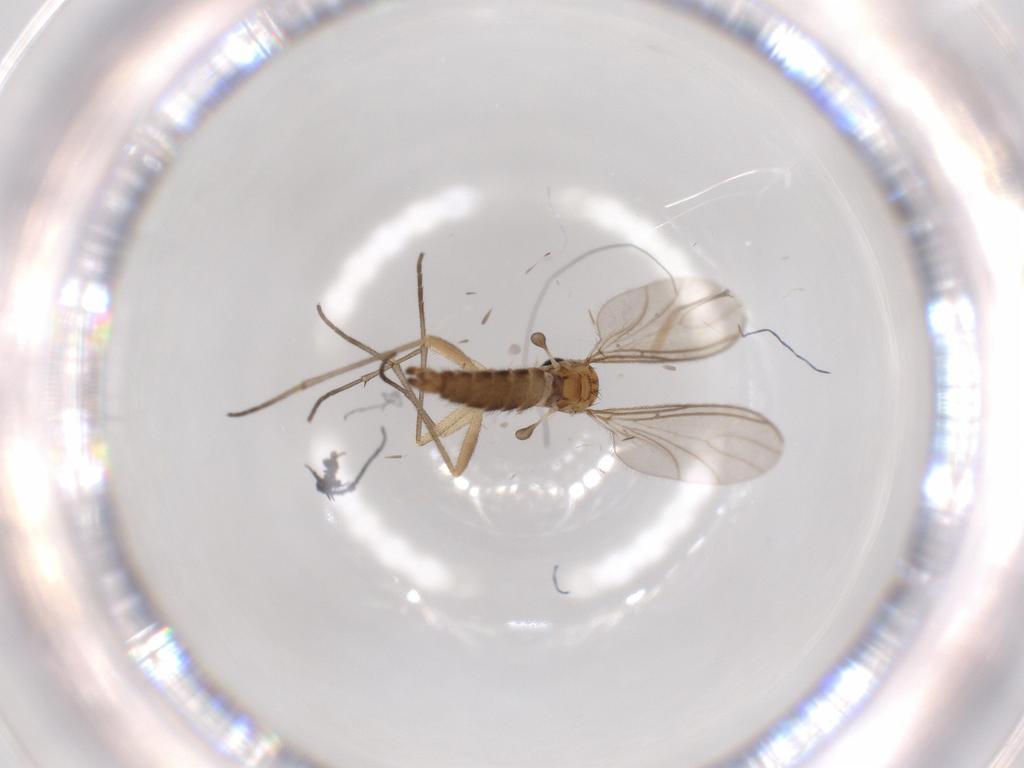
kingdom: Animalia
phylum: Arthropoda
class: Insecta
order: Diptera
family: Sciaridae
